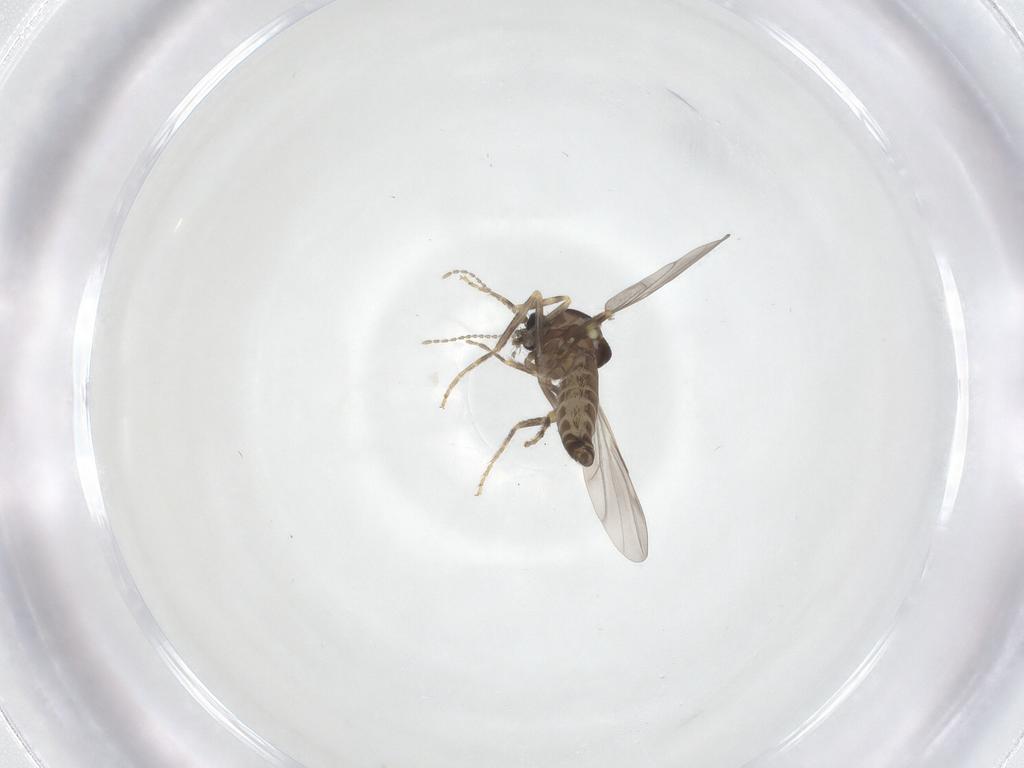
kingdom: Animalia
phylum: Arthropoda
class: Insecta
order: Diptera
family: Ceratopogonidae
